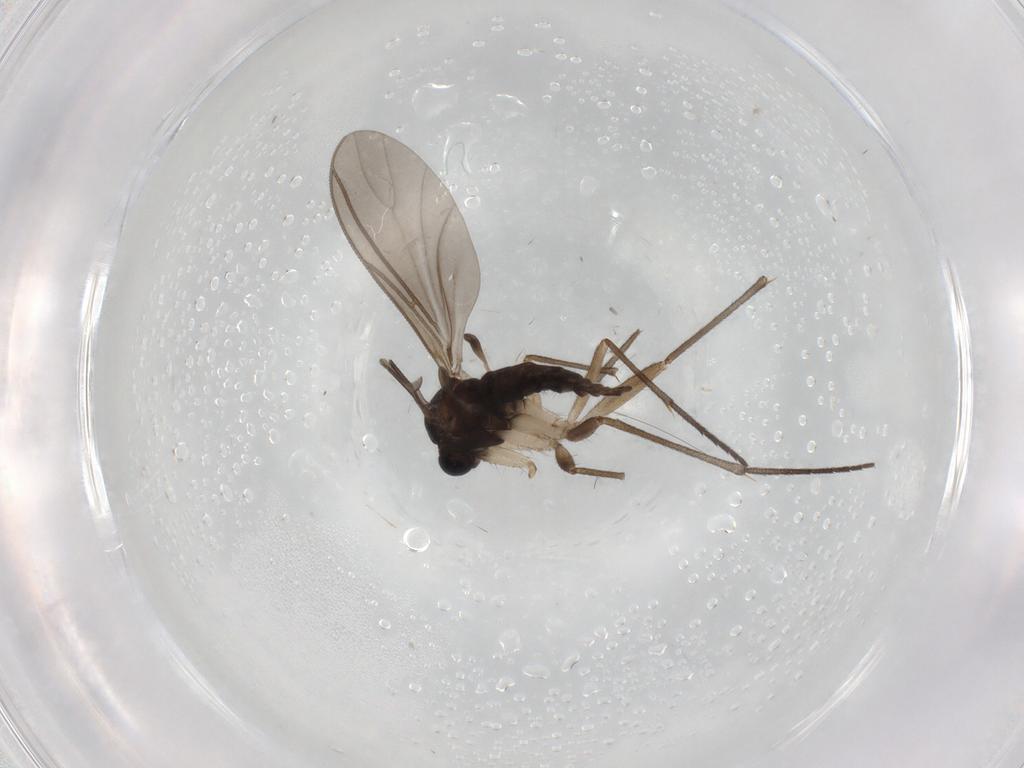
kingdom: Animalia
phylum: Arthropoda
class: Insecta
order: Diptera
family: Sciaridae
